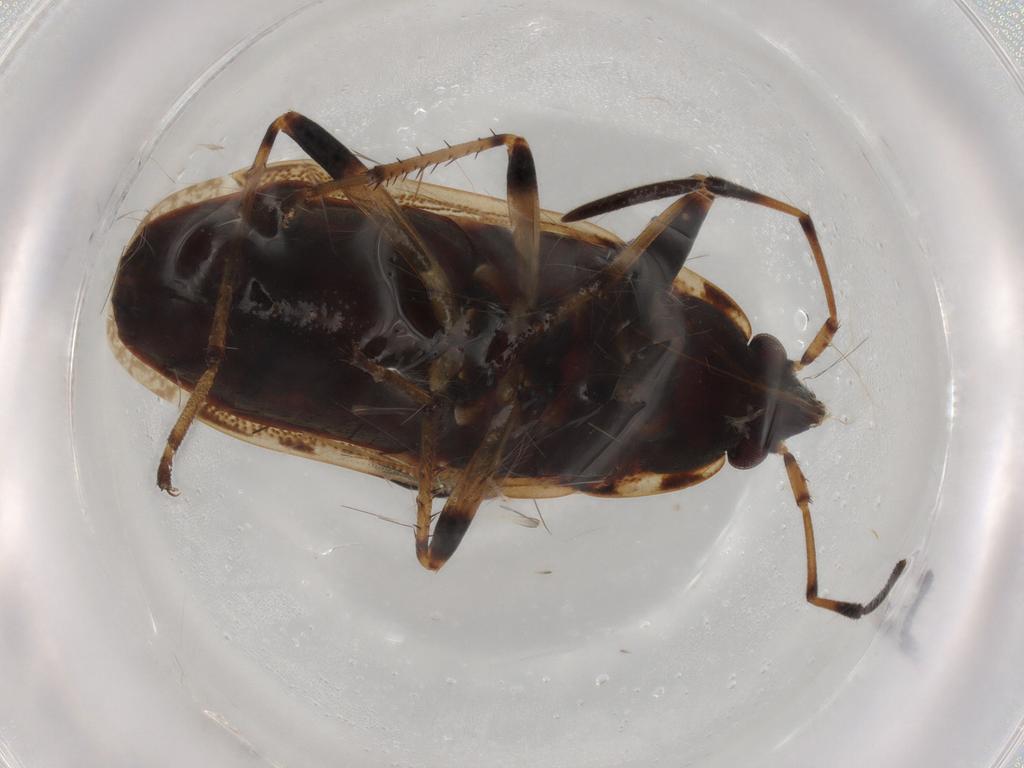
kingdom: Animalia
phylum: Arthropoda
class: Insecta
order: Hemiptera
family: Rhyparochromidae
